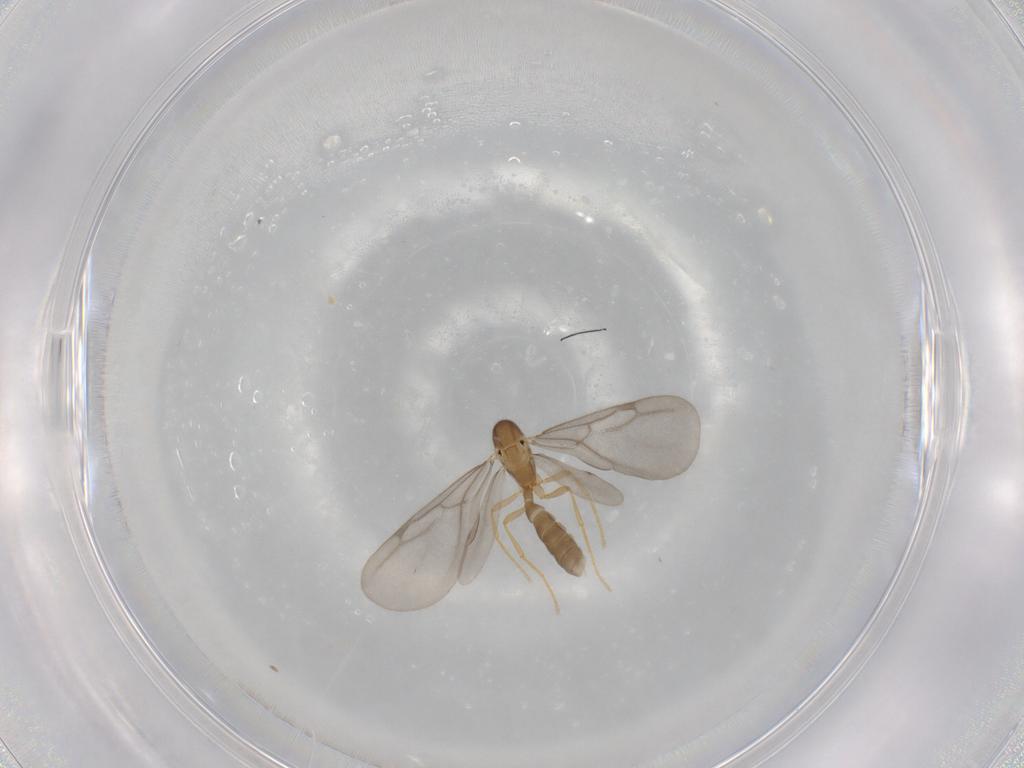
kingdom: Animalia
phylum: Arthropoda
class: Insecta
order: Hymenoptera
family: Formicidae
